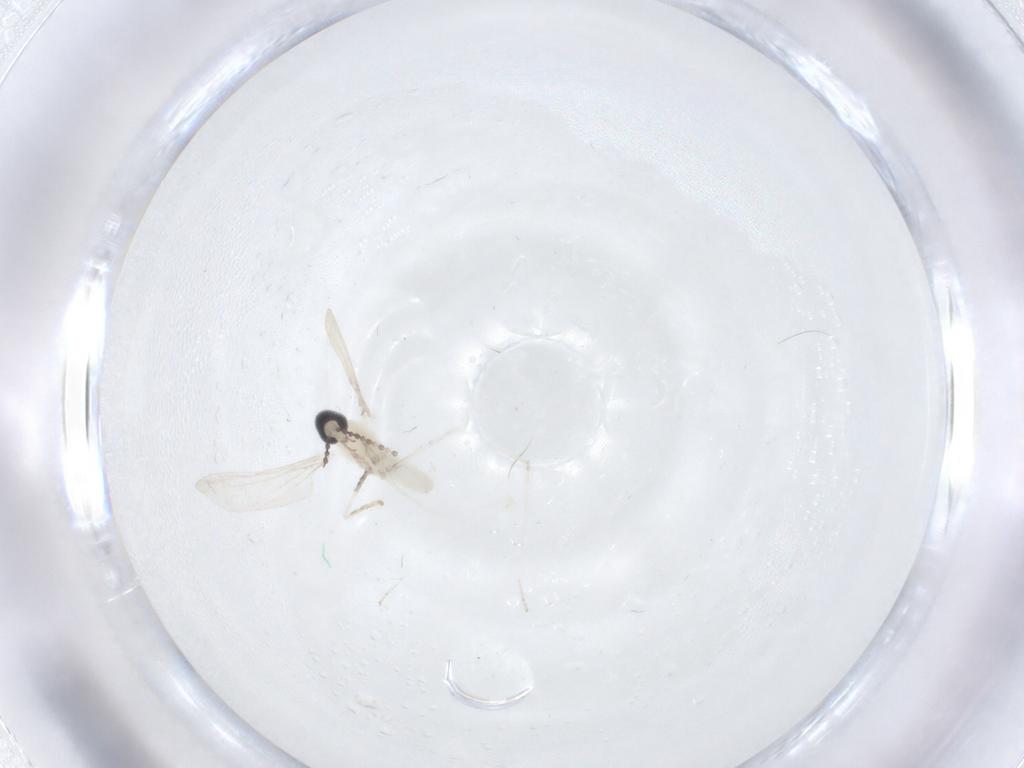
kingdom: Animalia
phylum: Arthropoda
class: Insecta
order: Diptera
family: Cecidomyiidae
